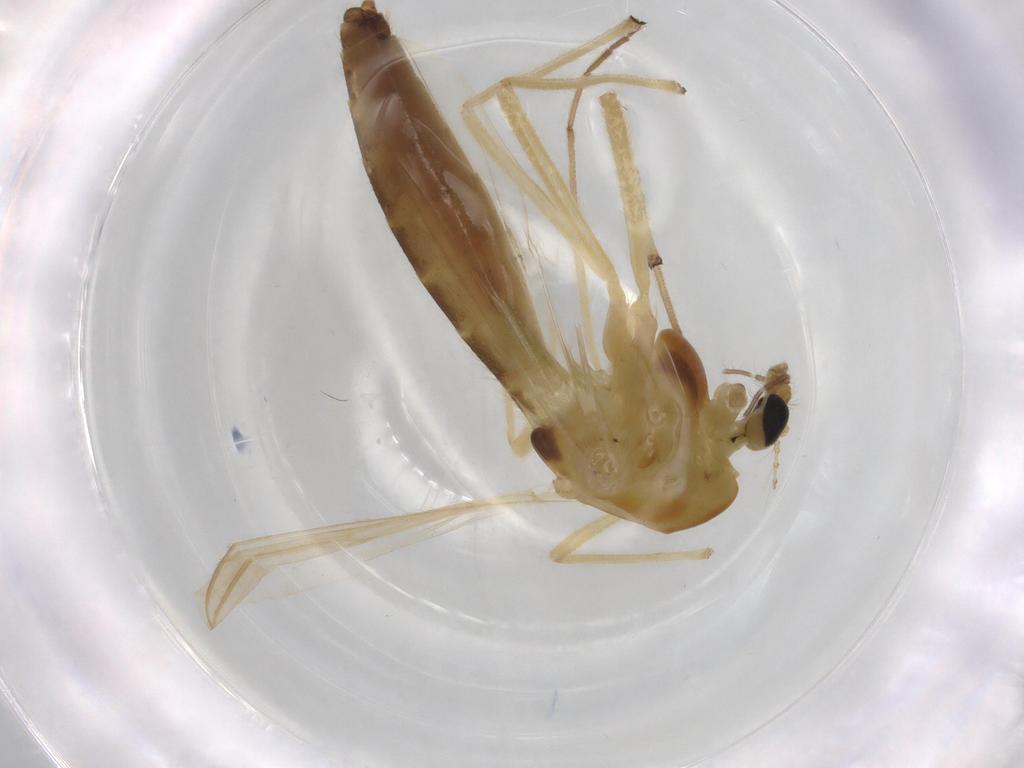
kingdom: Animalia
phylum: Arthropoda
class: Insecta
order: Diptera
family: Chironomidae
